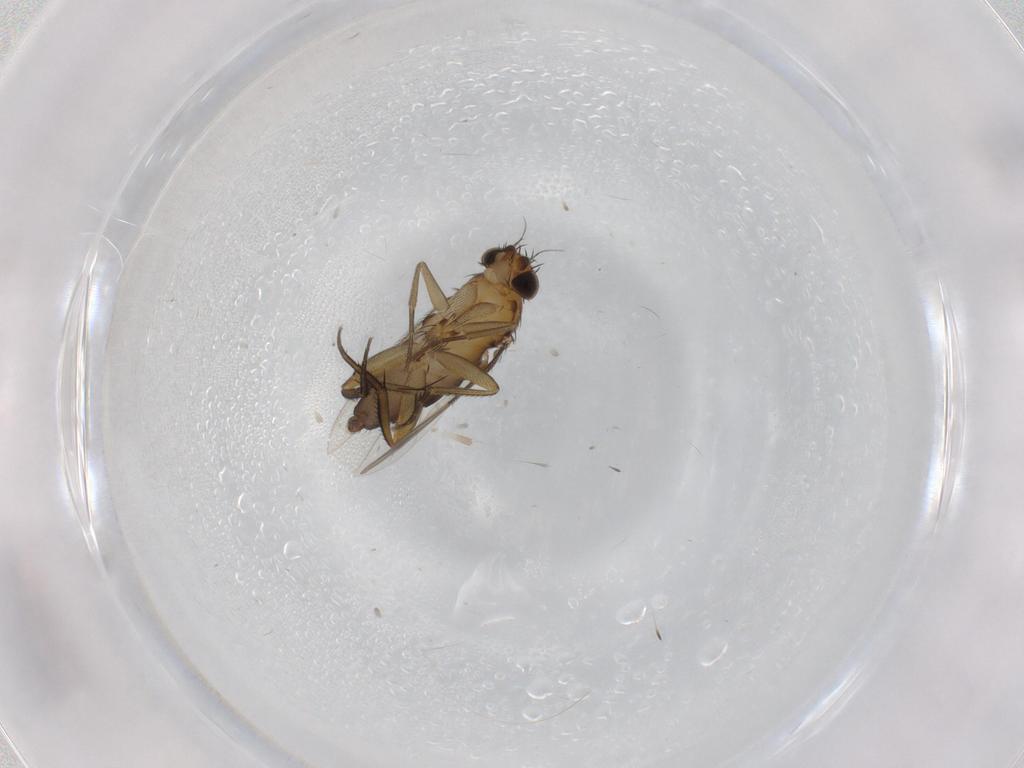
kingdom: Animalia
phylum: Arthropoda
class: Insecta
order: Diptera
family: Phoridae
